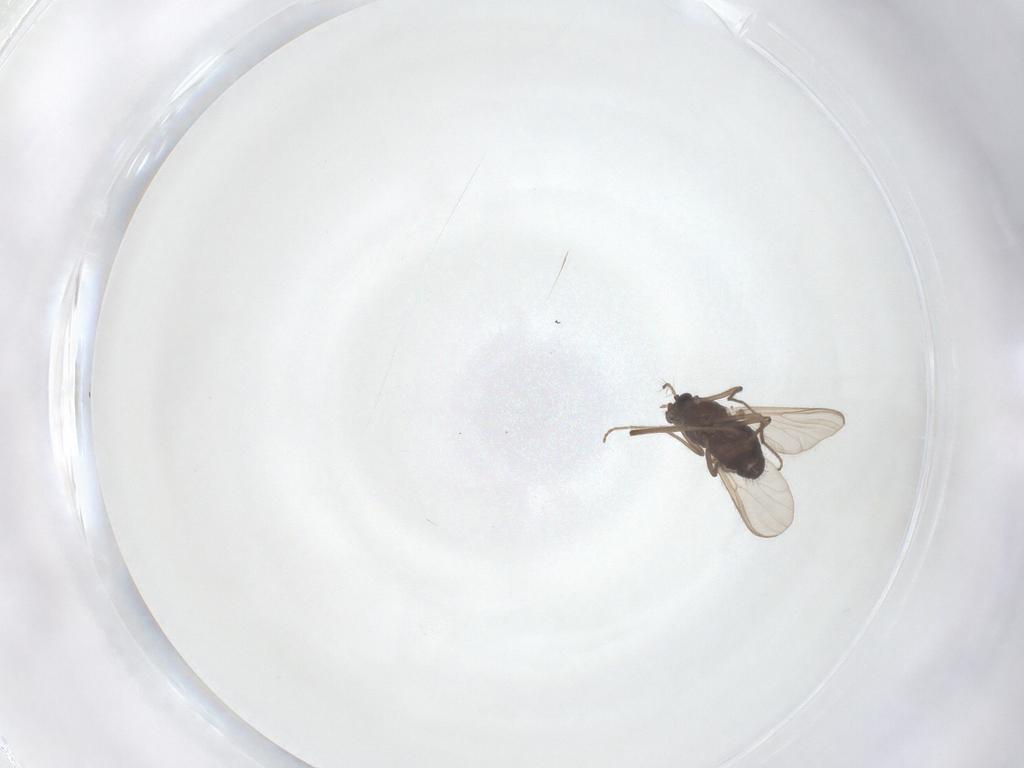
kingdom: Animalia
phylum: Arthropoda
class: Insecta
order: Diptera
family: Chironomidae
